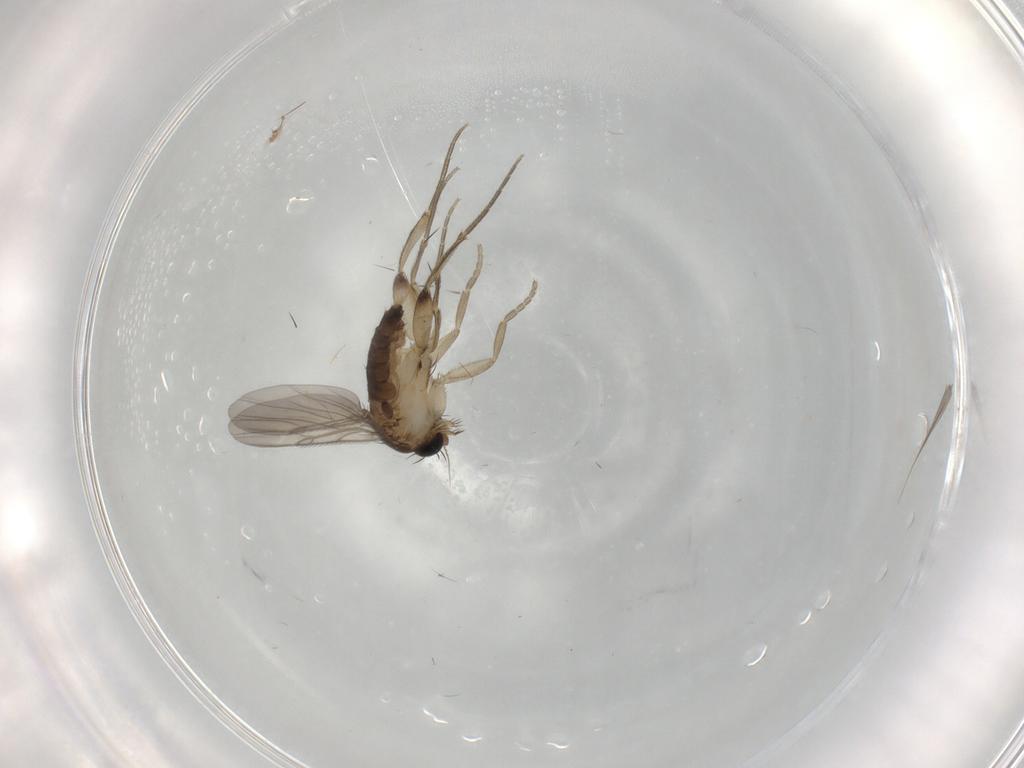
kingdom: Animalia
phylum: Arthropoda
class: Insecta
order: Diptera
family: Phoridae
